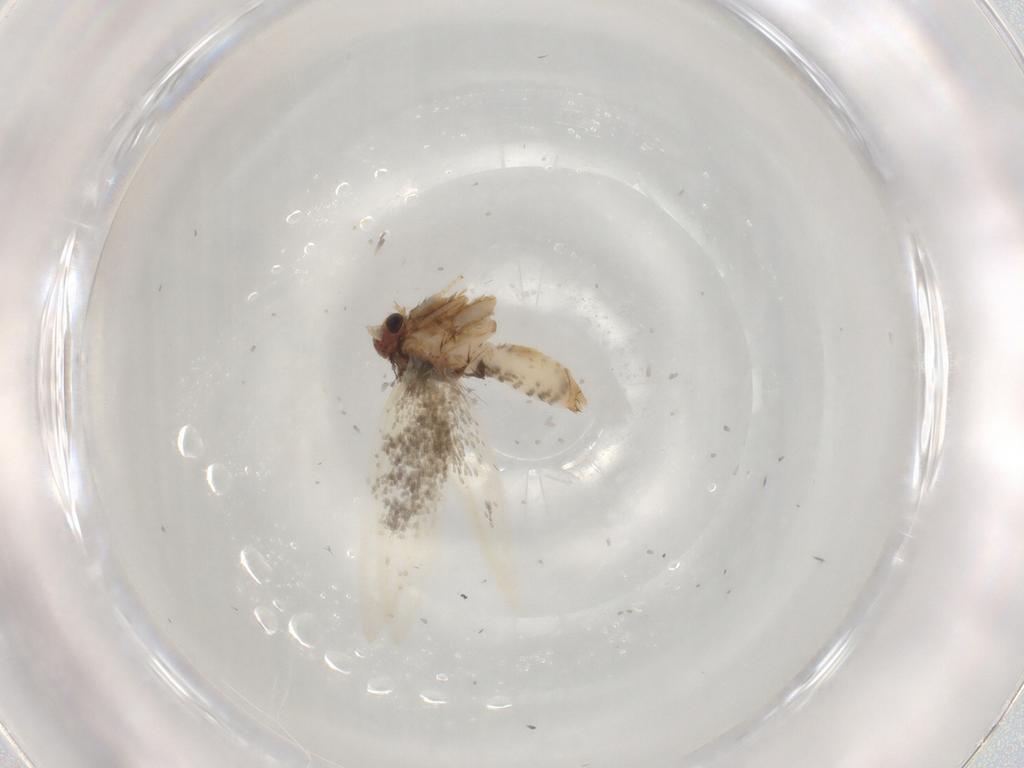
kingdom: Animalia
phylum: Arthropoda
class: Insecta
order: Lepidoptera
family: Nepticulidae
